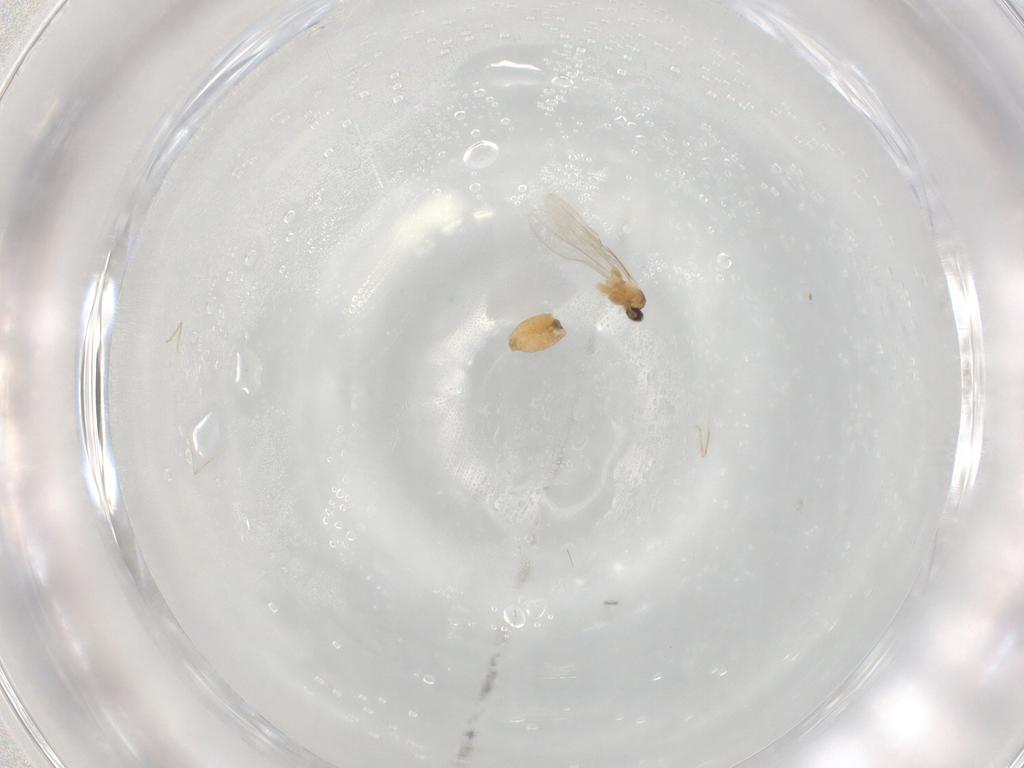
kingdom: Animalia
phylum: Arthropoda
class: Insecta
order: Diptera
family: Cecidomyiidae
